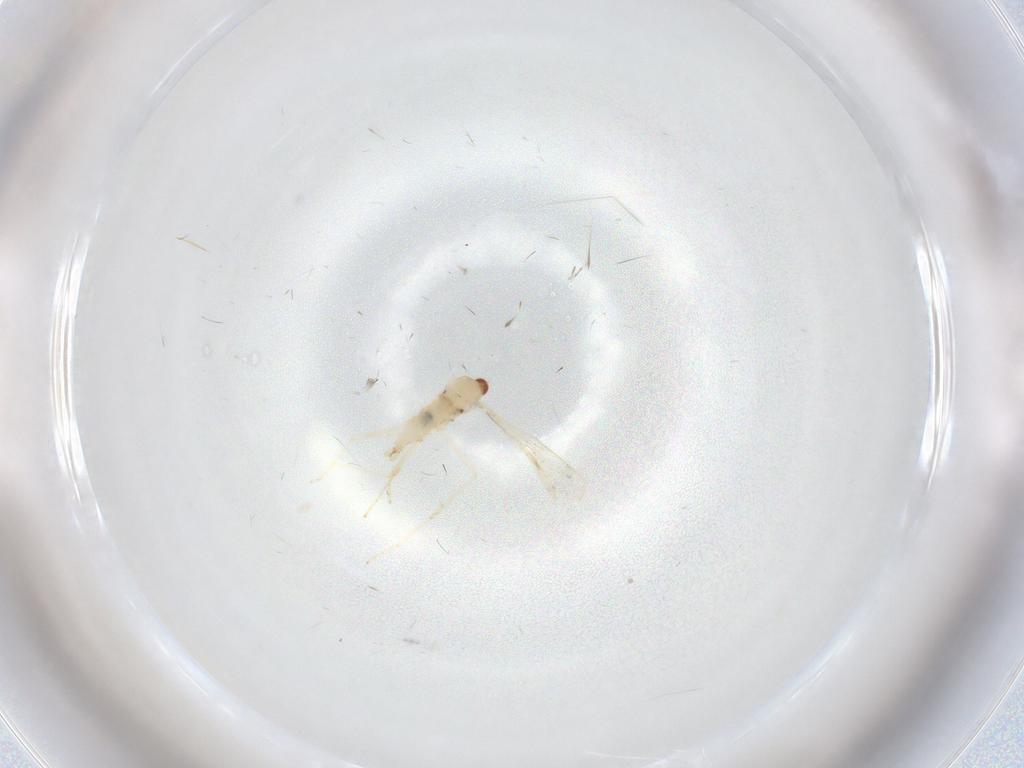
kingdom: Animalia
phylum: Arthropoda
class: Insecta
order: Diptera
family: Cecidomyiidae
